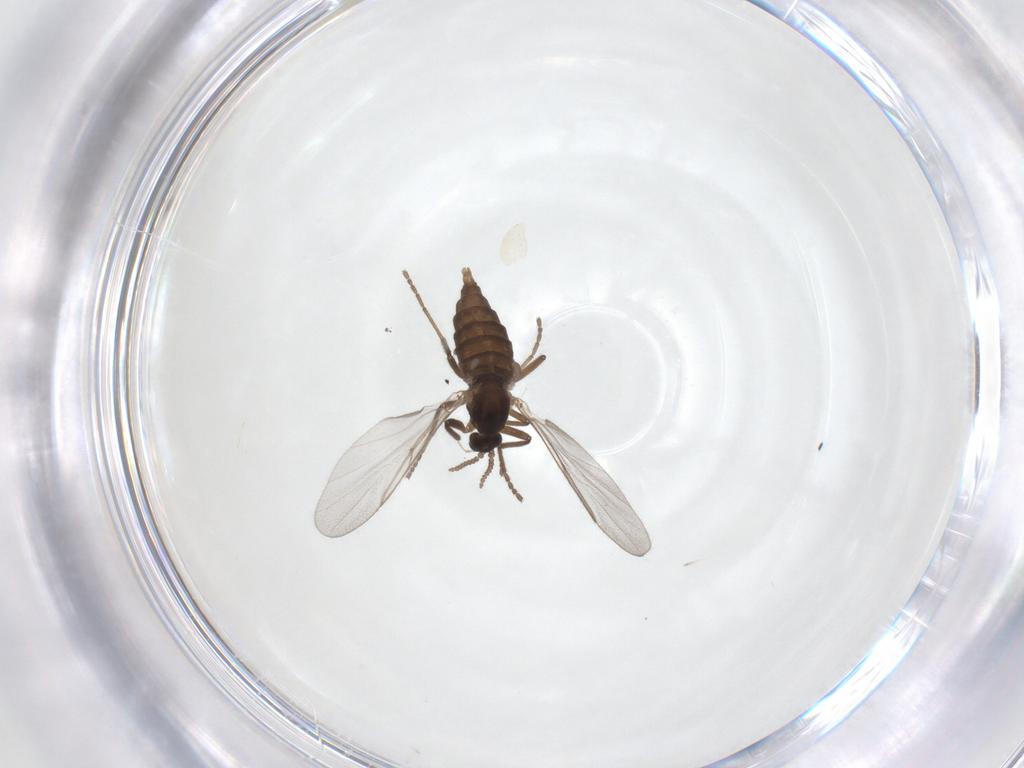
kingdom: Animalia
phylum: Arthropoda
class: Insecta
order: Diptera
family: Cecidomyiidae
